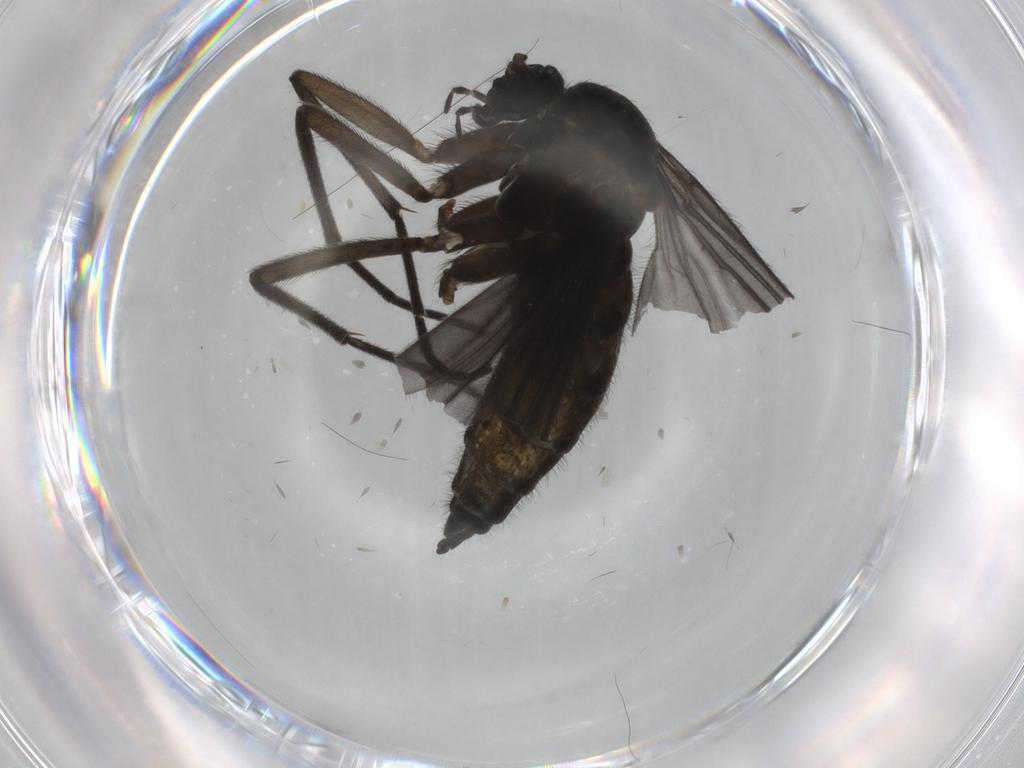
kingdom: Animalia
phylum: Arthropoda
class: Insecta
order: Diptera
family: Sciaridae
